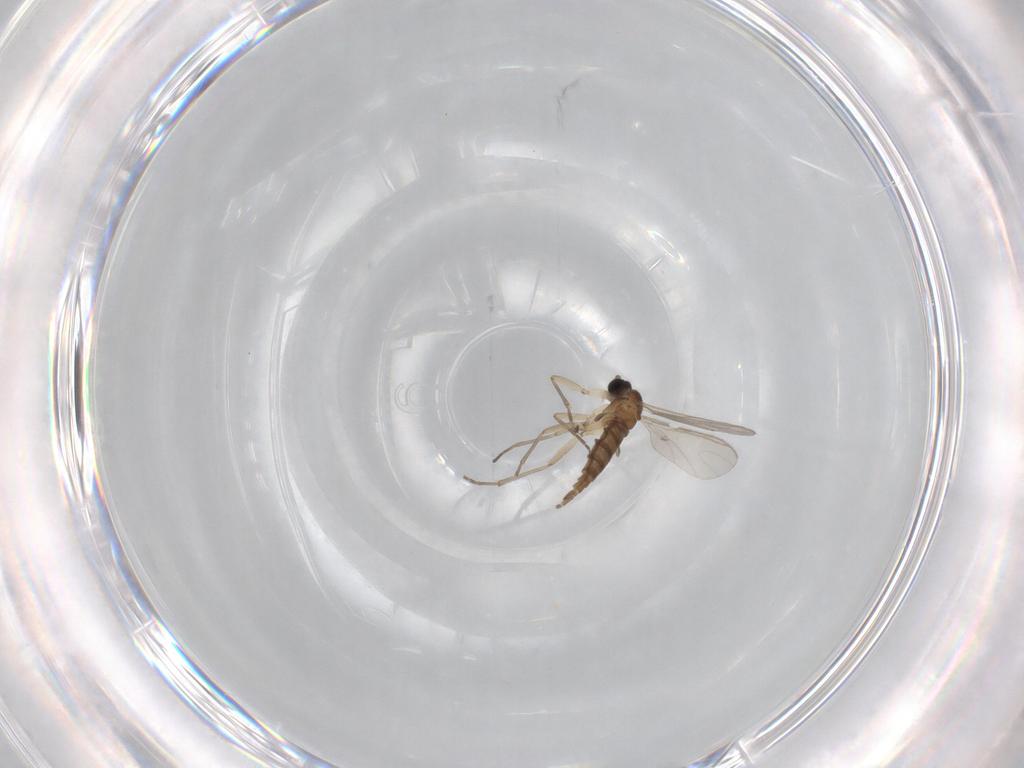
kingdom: Animalia
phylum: Arthropoda
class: Insecta
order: Diptera
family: Sciaridae
